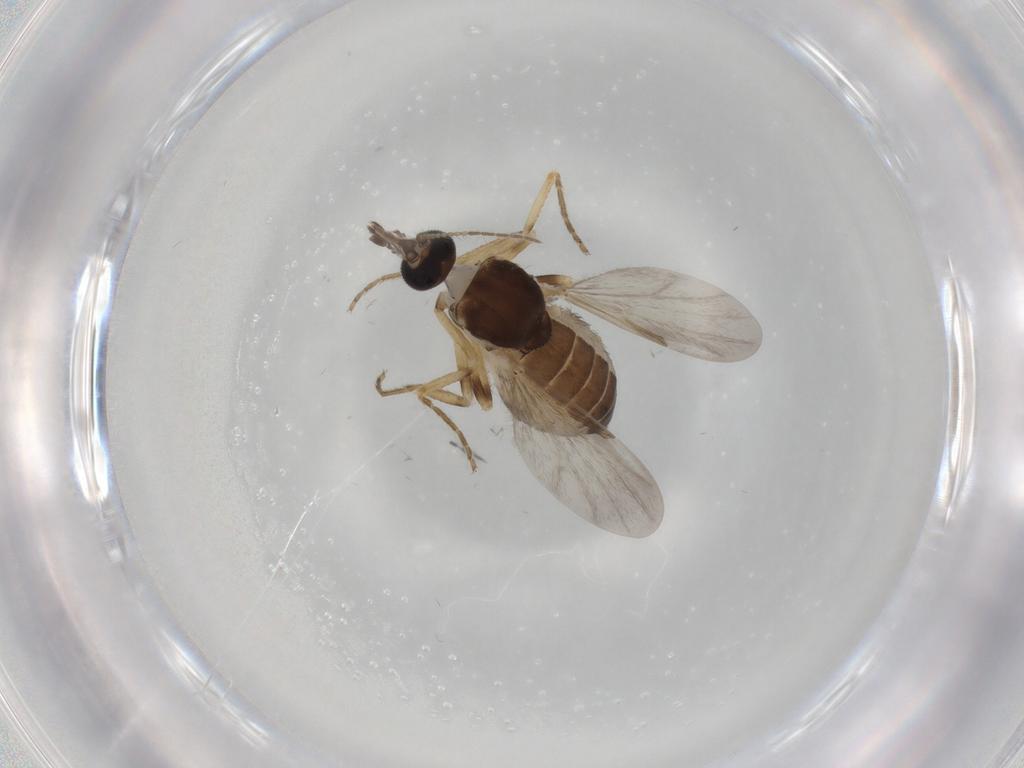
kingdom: Animalia
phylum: Arthropoda
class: Insecta
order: Diptera
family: Ceratopogonidae
